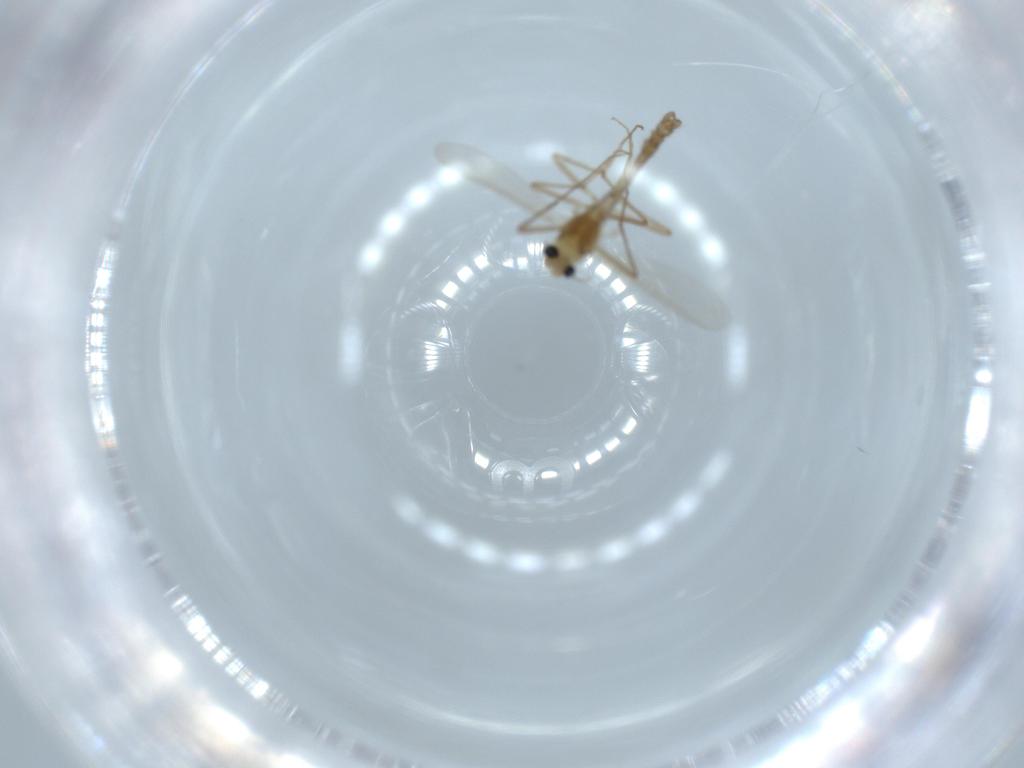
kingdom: Animalia
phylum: Arthropoda
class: Insecta
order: Diptera
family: Chironomidae
